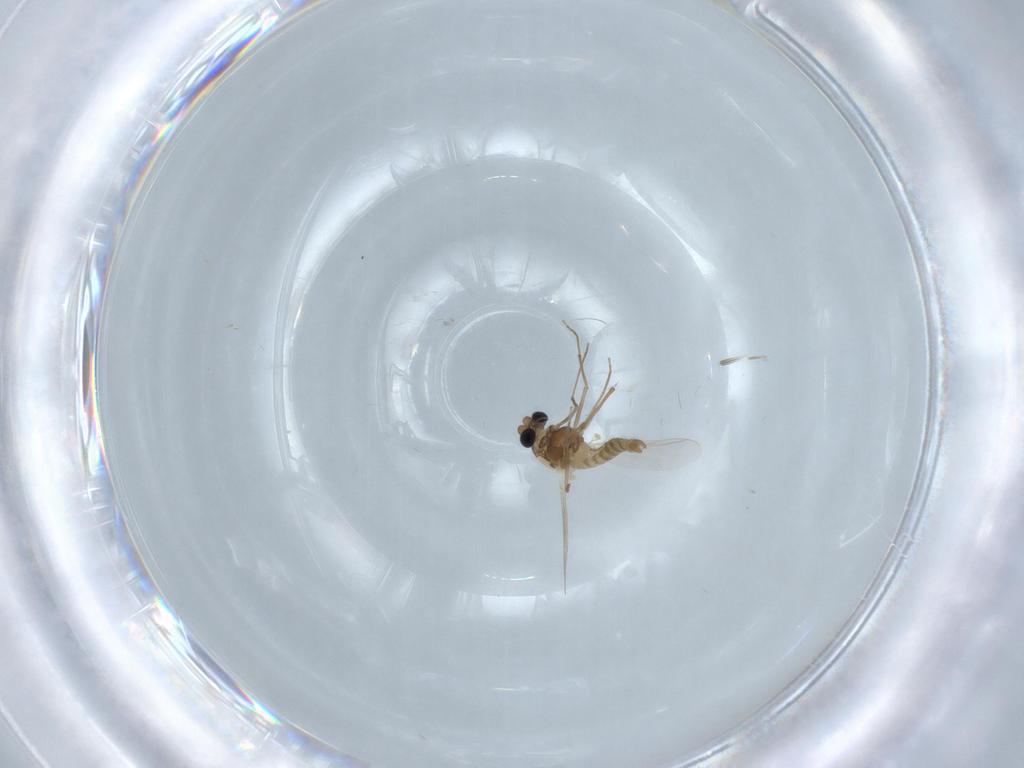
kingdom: Animalia
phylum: Arthropoda
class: Insecta
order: Diptera
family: Chironomidae
